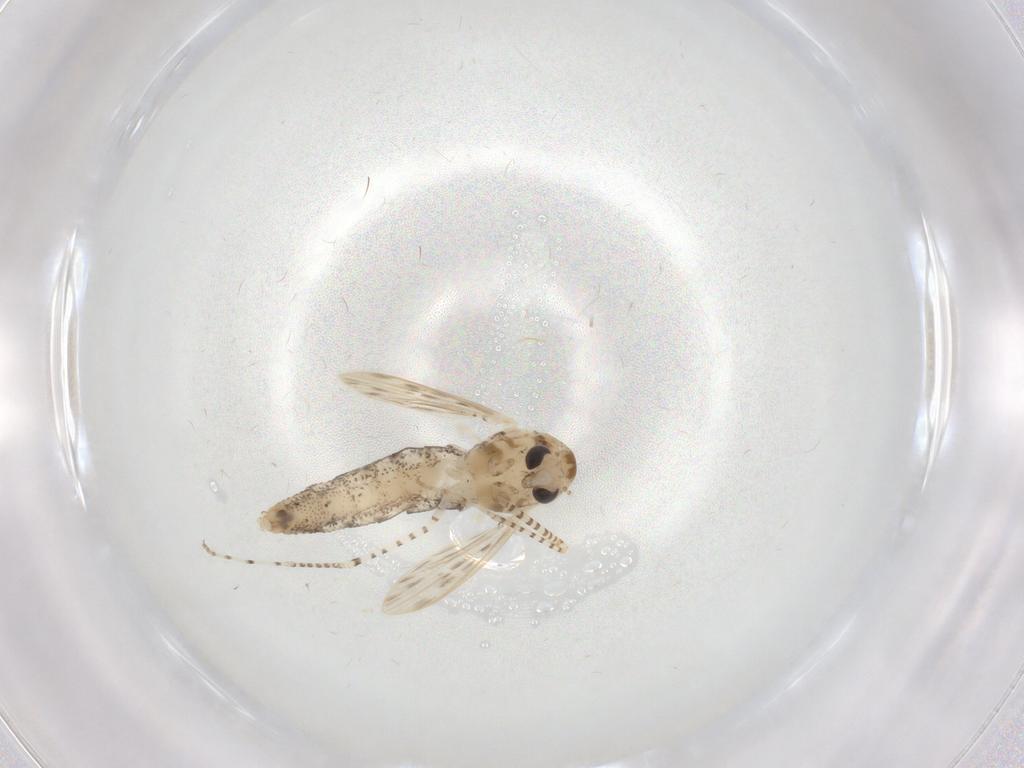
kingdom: Animalia
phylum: Arthropoda
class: Insecta
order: Diptera
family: Chaoboridae
